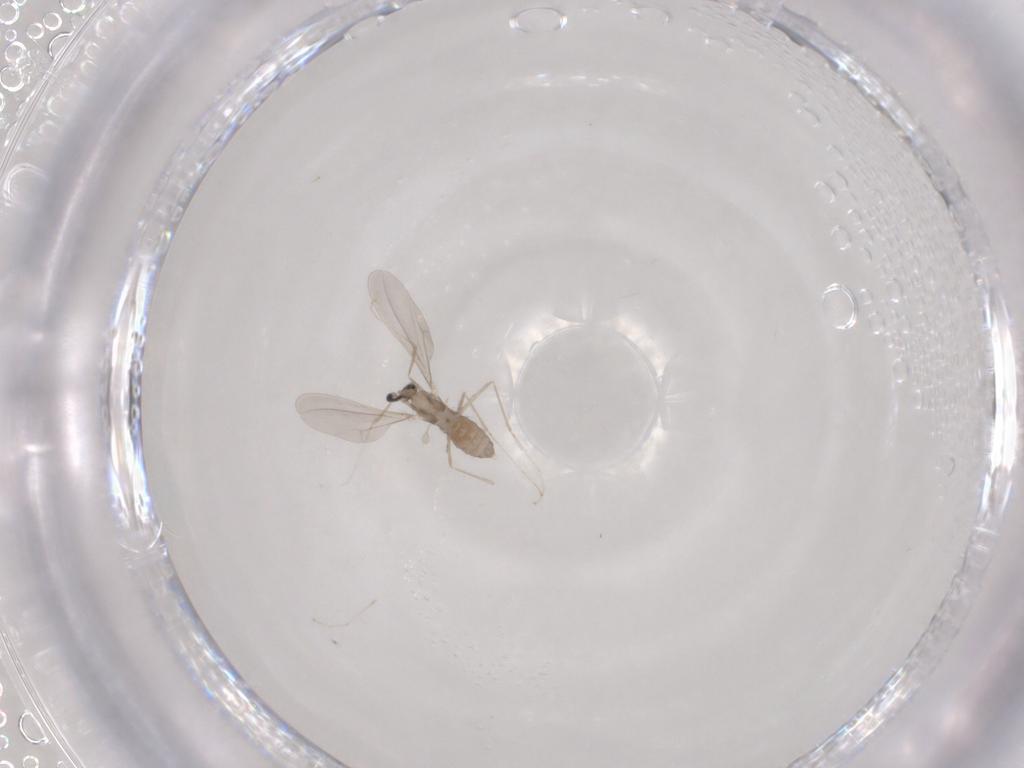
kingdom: Animalia
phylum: Arthropoda
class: Insecta
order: Diptera
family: Cecidomyiidae
